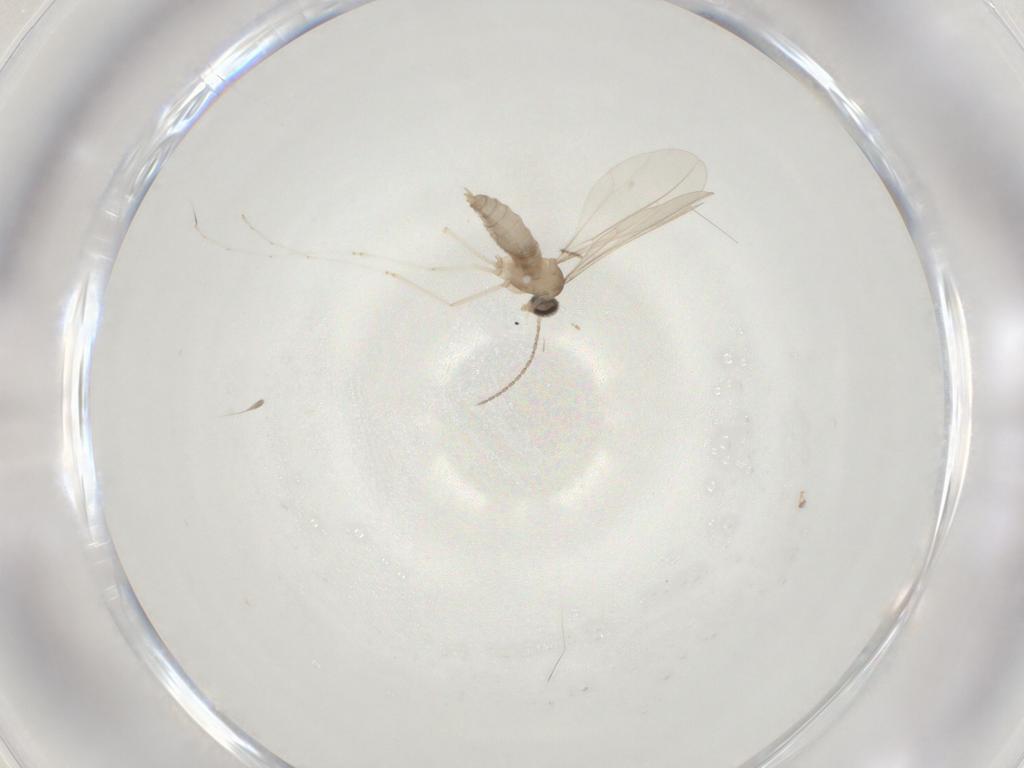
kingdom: Animalia
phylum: Arthropoda
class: Insecta
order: Diptera
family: Cecidomyiidae
